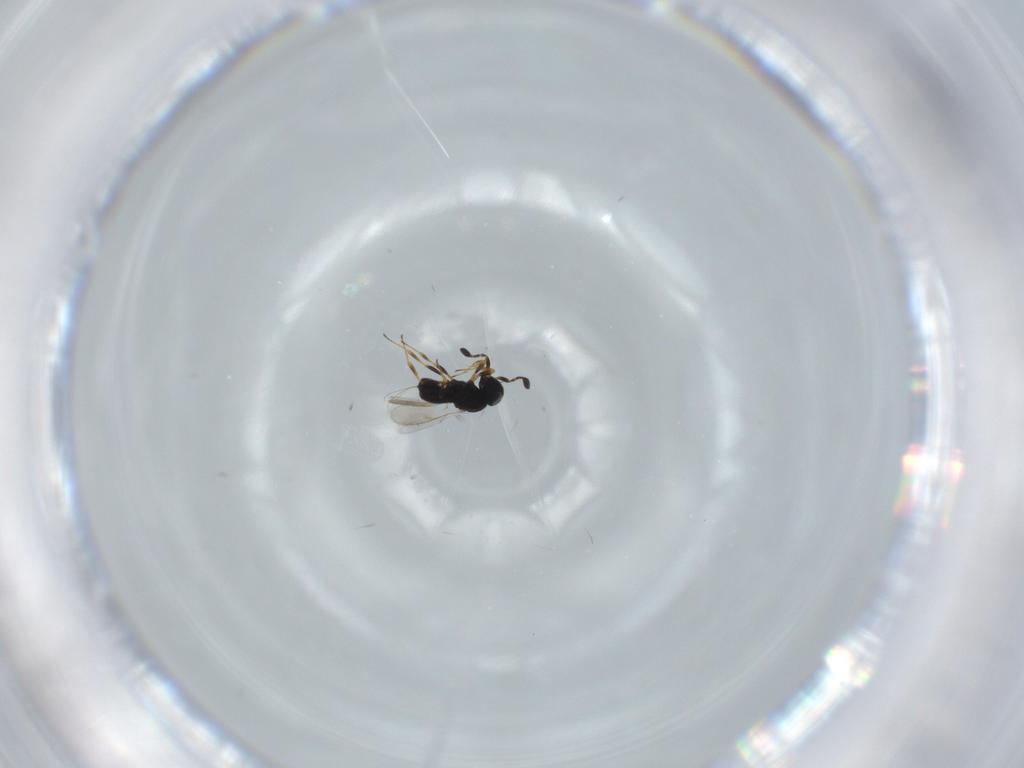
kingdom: Animalia
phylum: Arthropoda
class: Insecta
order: Hymenoptera
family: Scelionidae
